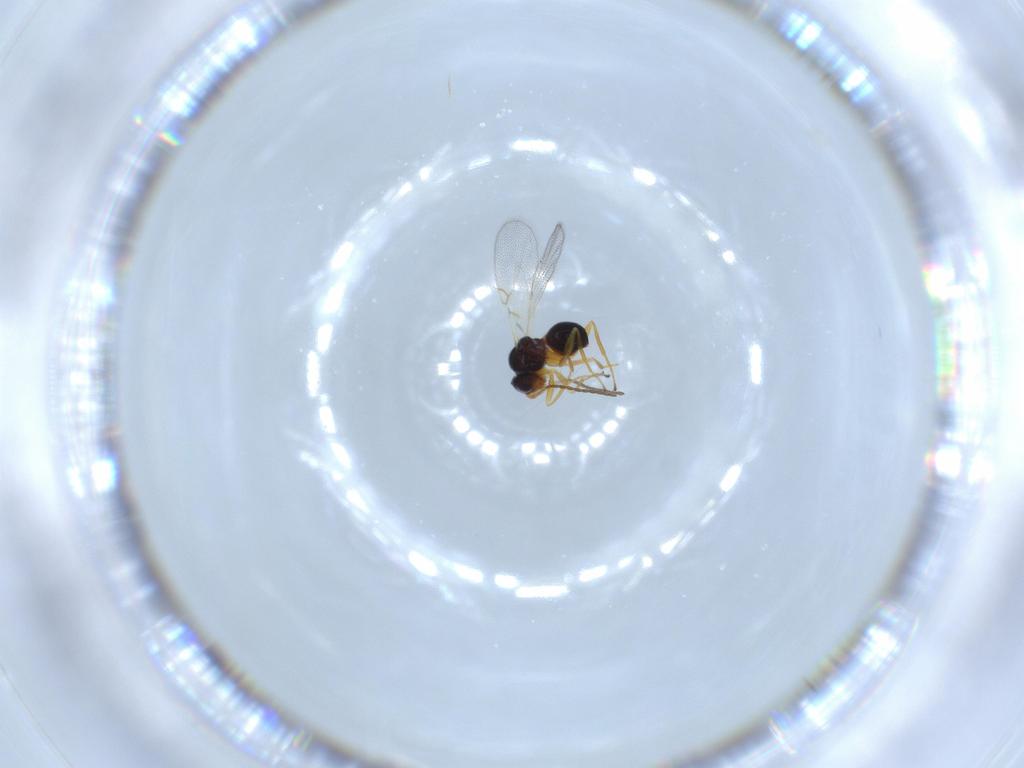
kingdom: Animalia
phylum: Arthropoda
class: Insecta
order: Hymenoptera
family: Figitidae
